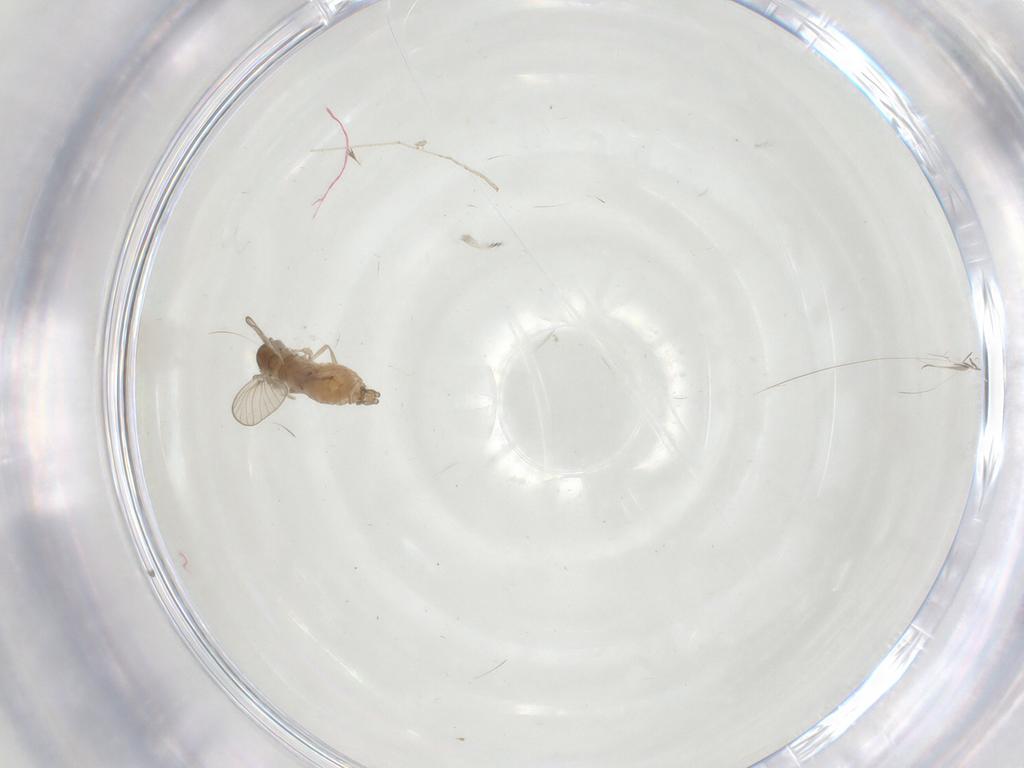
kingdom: Animalia
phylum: Arthropoda
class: Insecta
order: Diptera
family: Psychodidae
